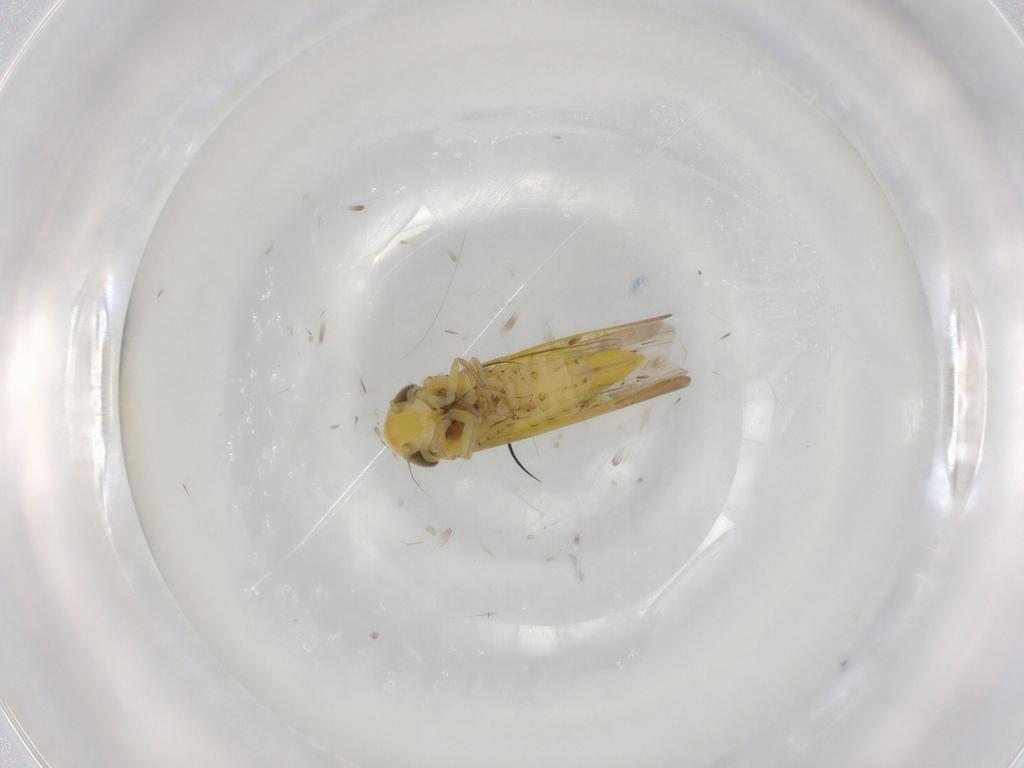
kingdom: Animalia
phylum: Arthropoda
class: Insecta
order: Hemiptera
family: Cicadellidae
